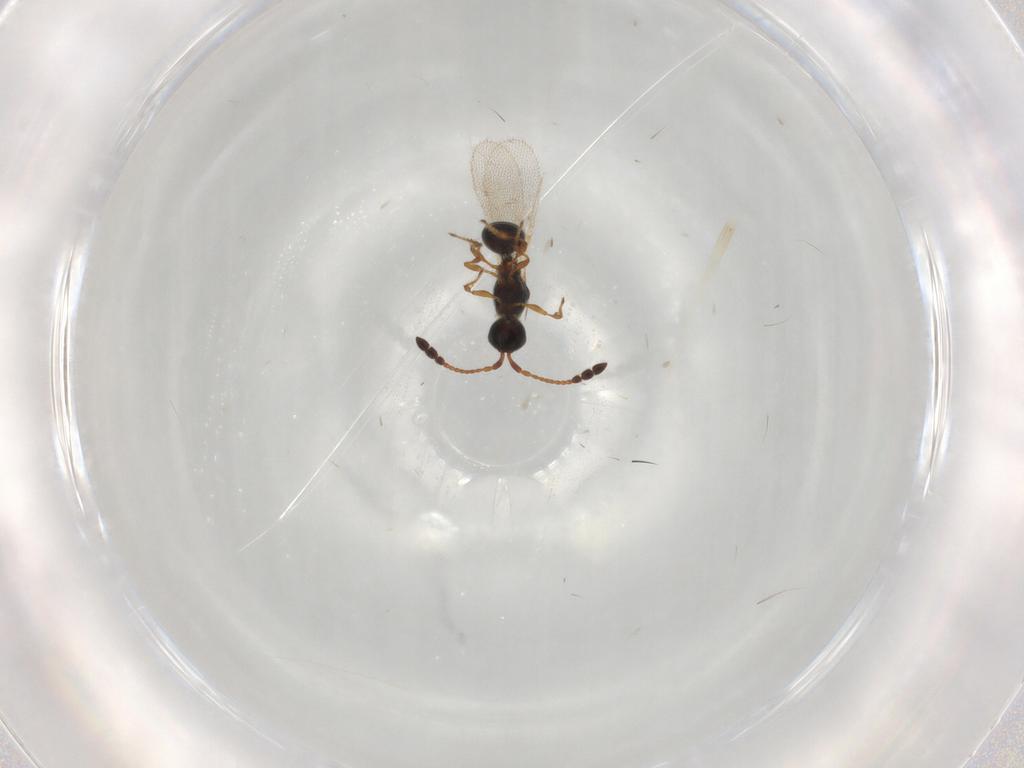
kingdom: Animalia
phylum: Arthropoda
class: Insecta
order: Hymenoptera
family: Diapriidae
